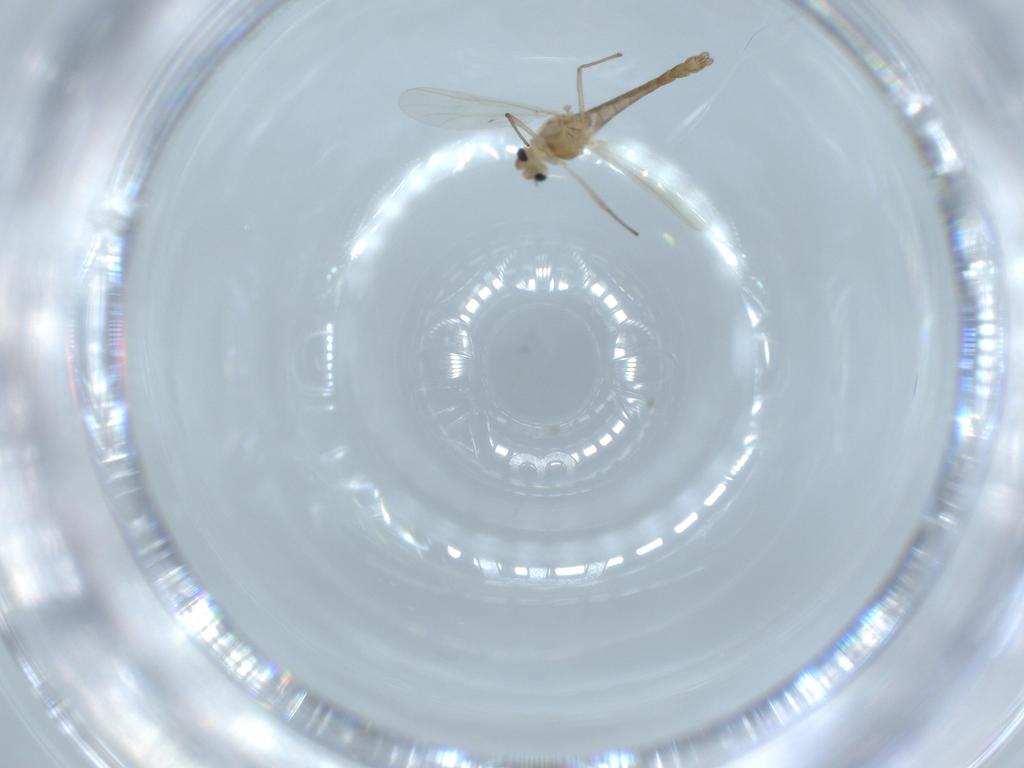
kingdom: Animalia
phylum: Arthropoda
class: Insecta
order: Diptera
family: Chironomidae
